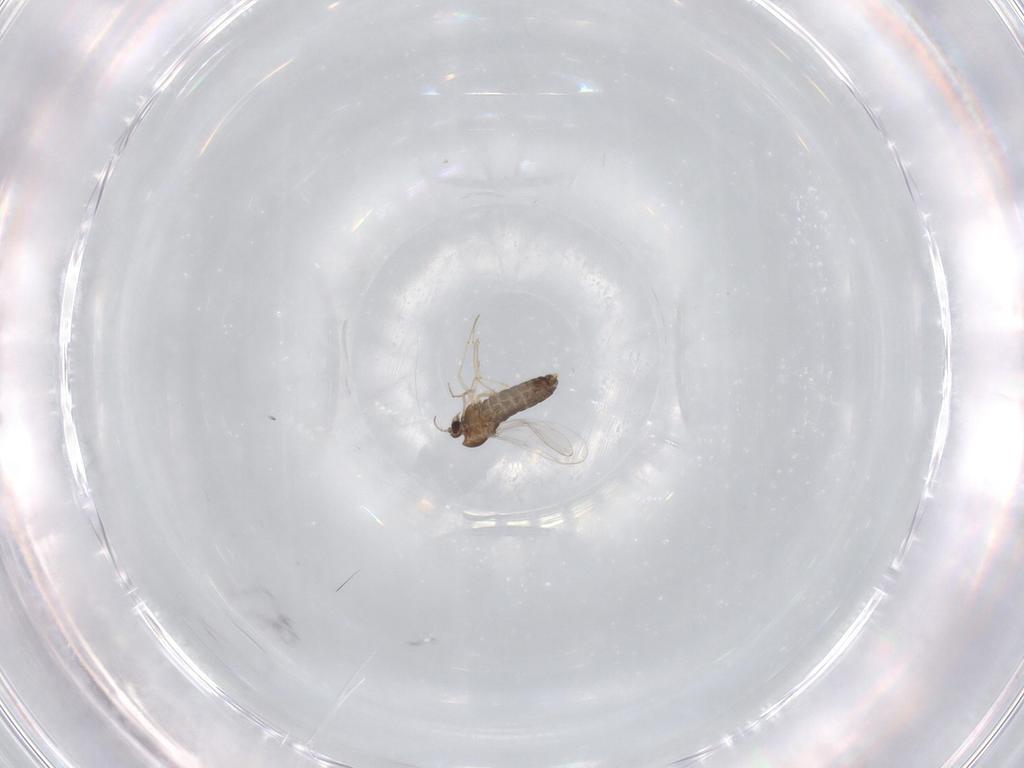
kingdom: Animalia
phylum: Arthropoda
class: Insecta
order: Diptera
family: Chironomidae
